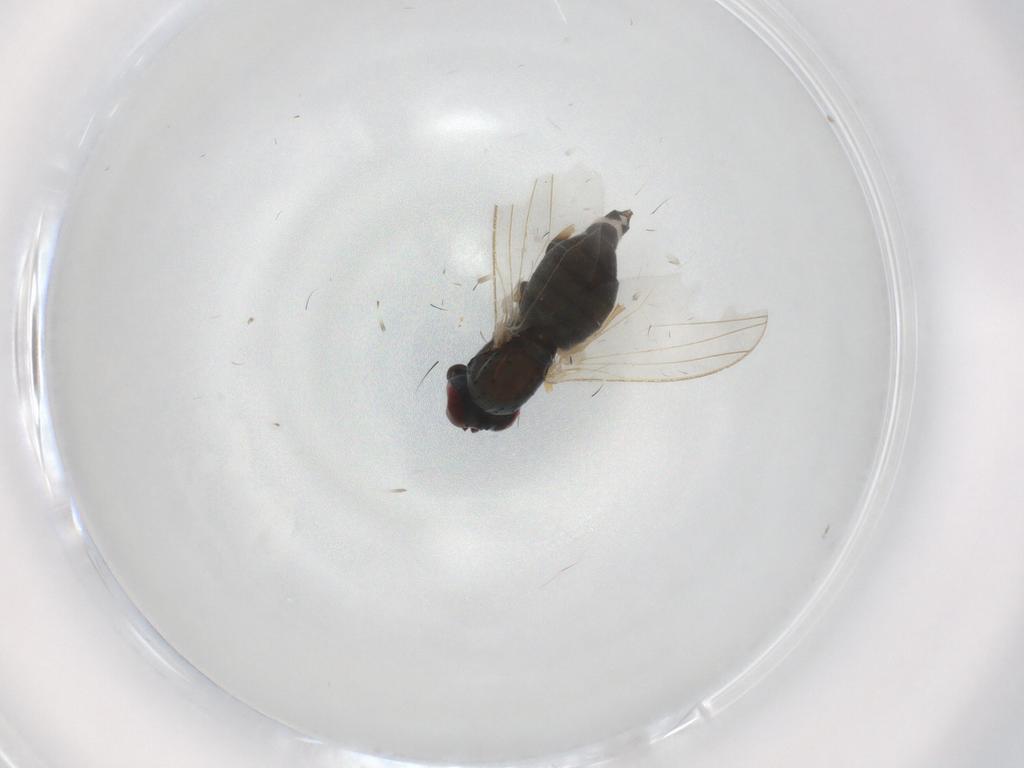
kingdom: Animalia
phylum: Arthropoda
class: Insecta
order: Diptera
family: Dolichopodidae
